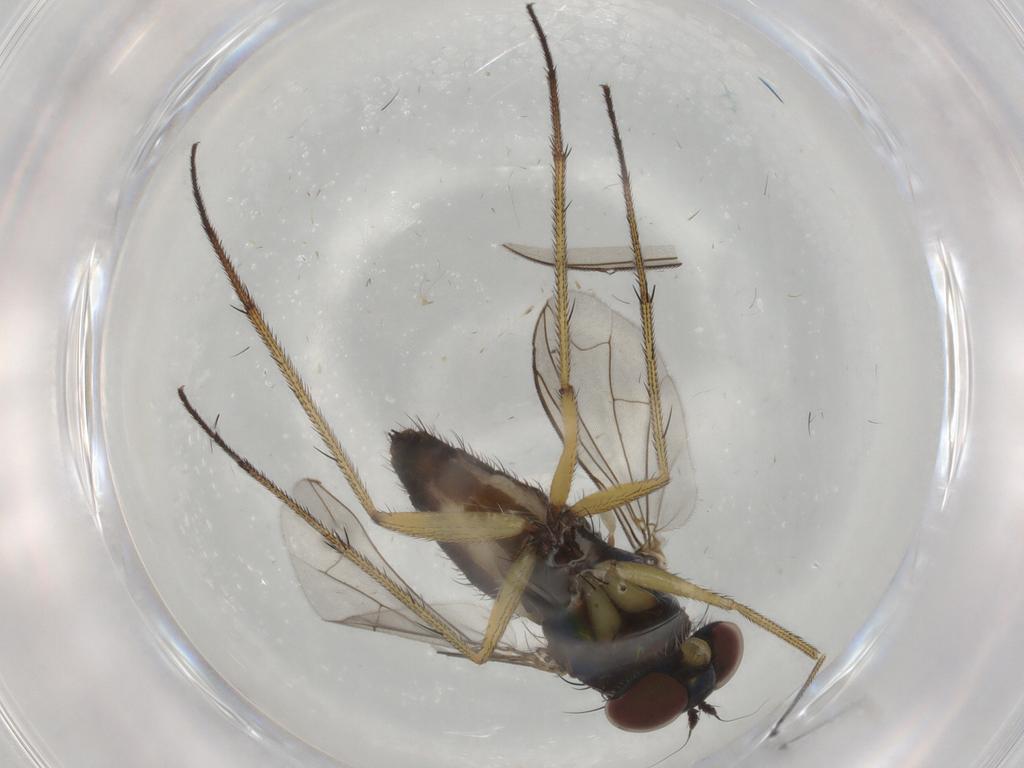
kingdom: Animalia
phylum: Arthropoda
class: Insecta
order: Diptera
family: Dolichopodidae
